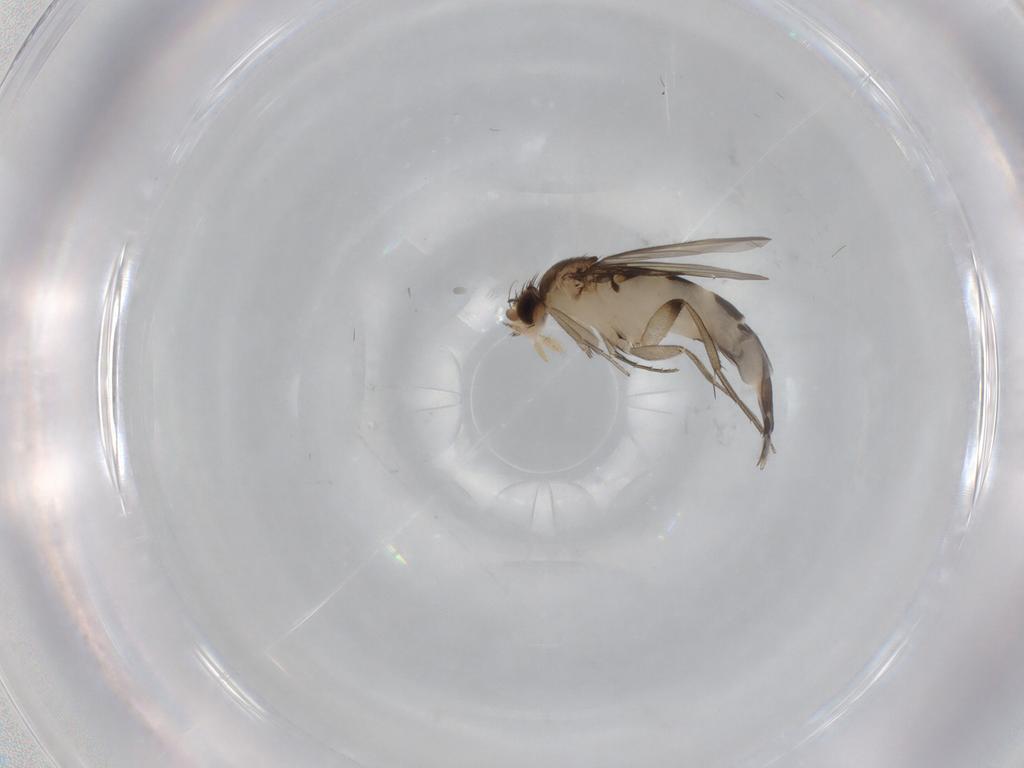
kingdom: Animalia
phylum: Arthropoda
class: Insecta
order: Diptera
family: Phoridae
